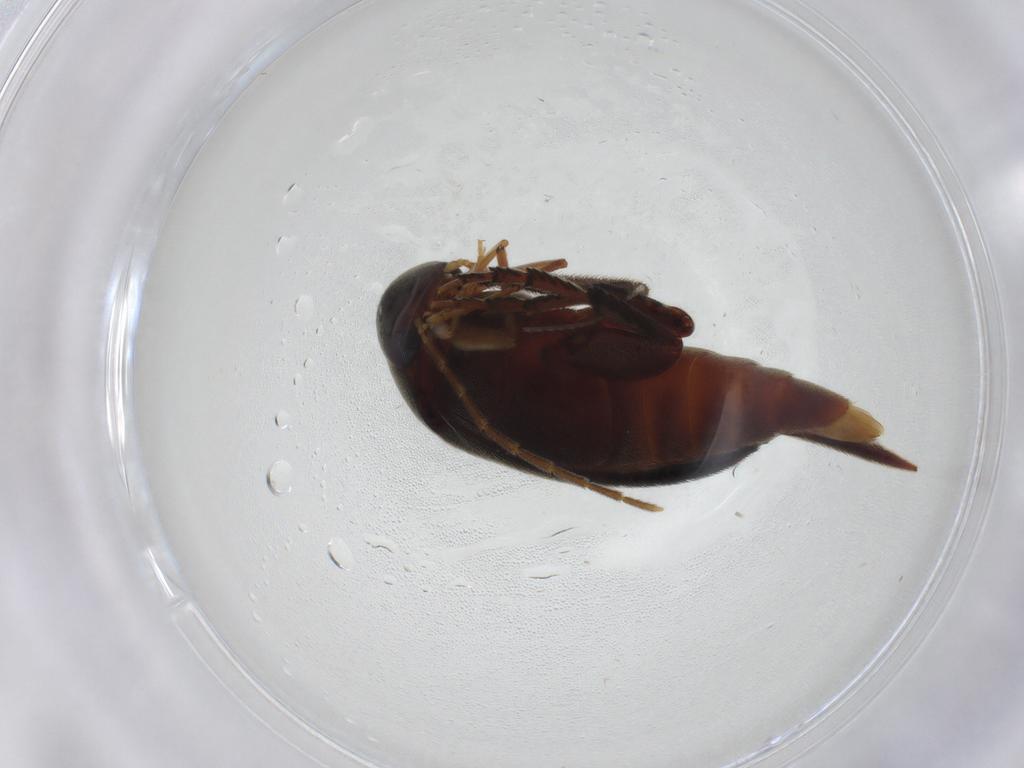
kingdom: Animalia
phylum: Arthropoda
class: Insecta
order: Coleoptera
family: Mordellidae
